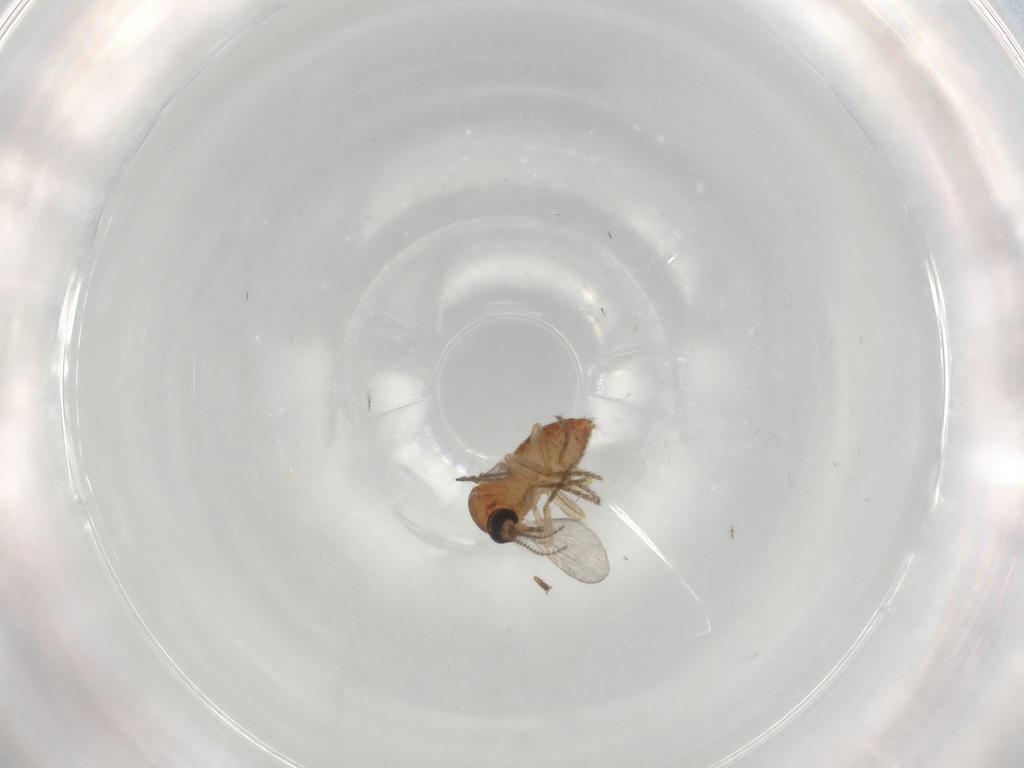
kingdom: Animalia
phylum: Arthropoda
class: Insecta
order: Diptera
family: Ceratopogonidae
